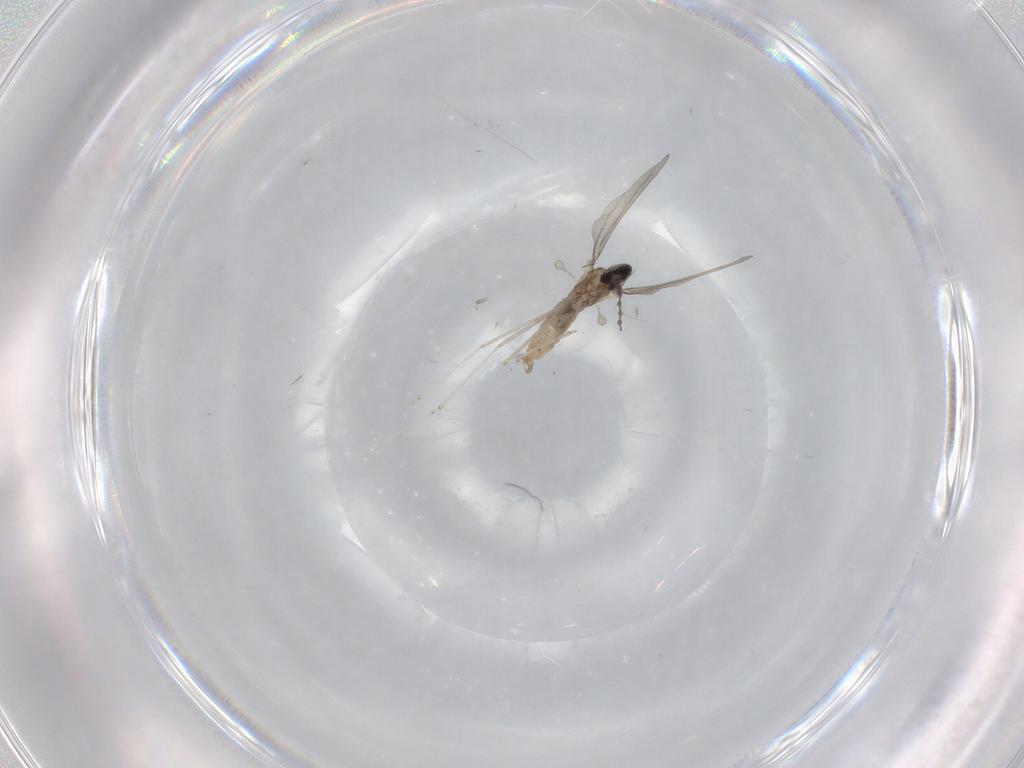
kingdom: Animalia
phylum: Arthropoda
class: Insecta
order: Diptera
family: Cecidomyiidae
